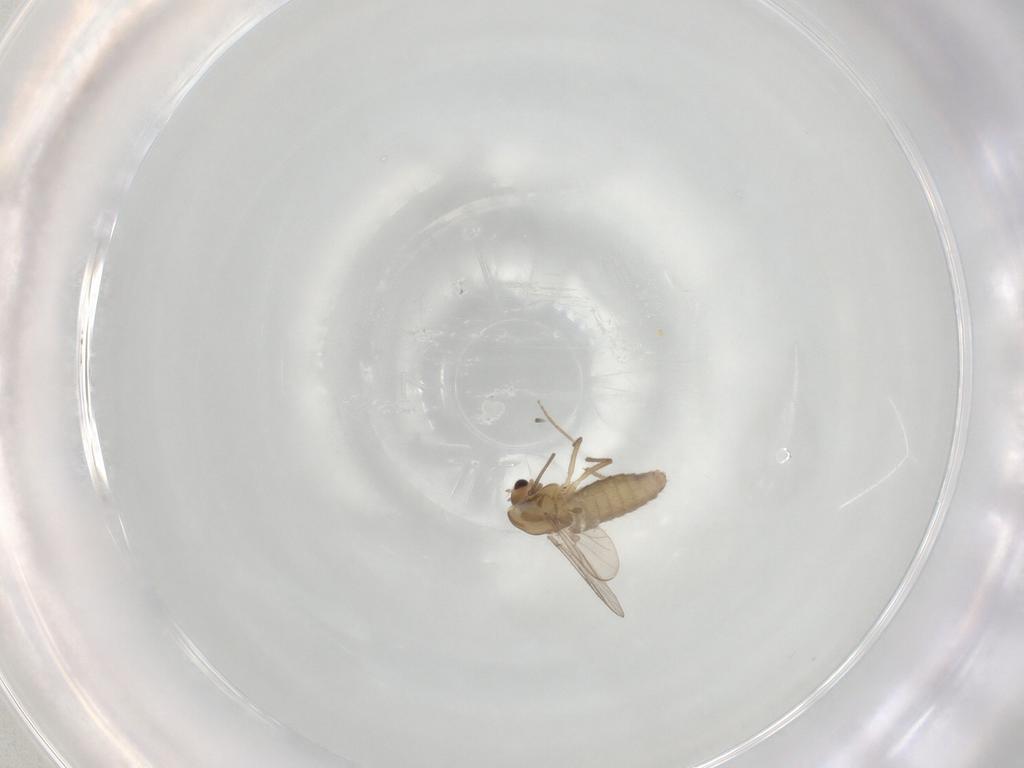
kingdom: Animalia
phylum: Arthropoda
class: Insecta
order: Diptera
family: Chironomidae
